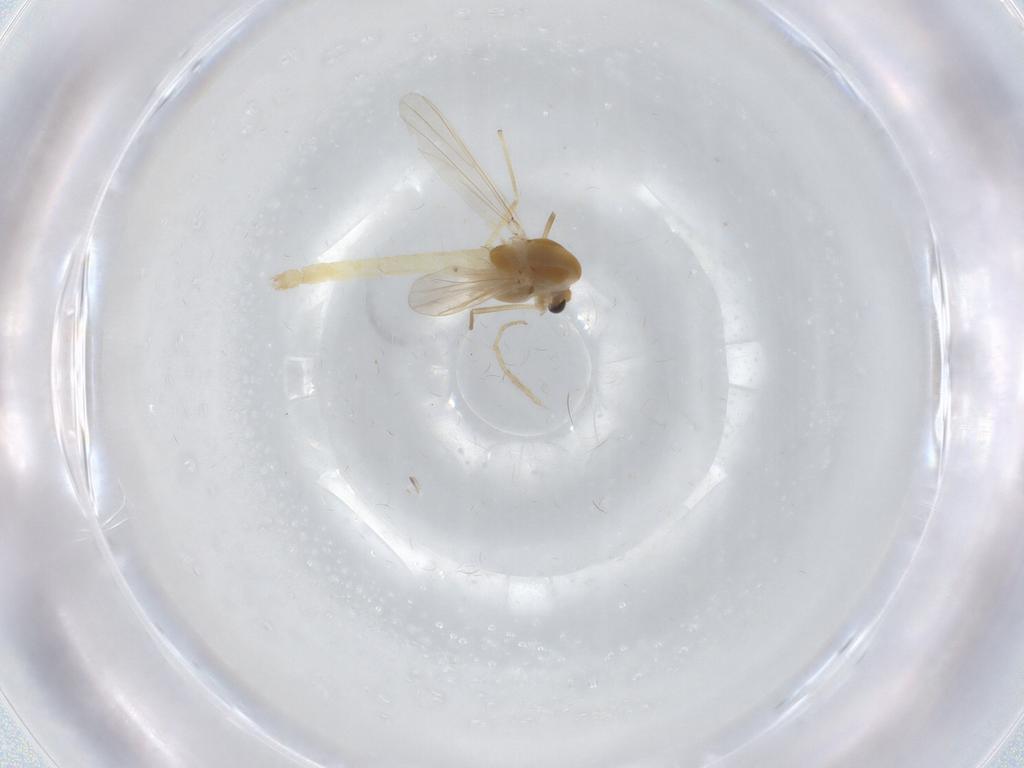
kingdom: Animalia
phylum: Arthropoda
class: Insecta
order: Diptera
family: Chironomidae
